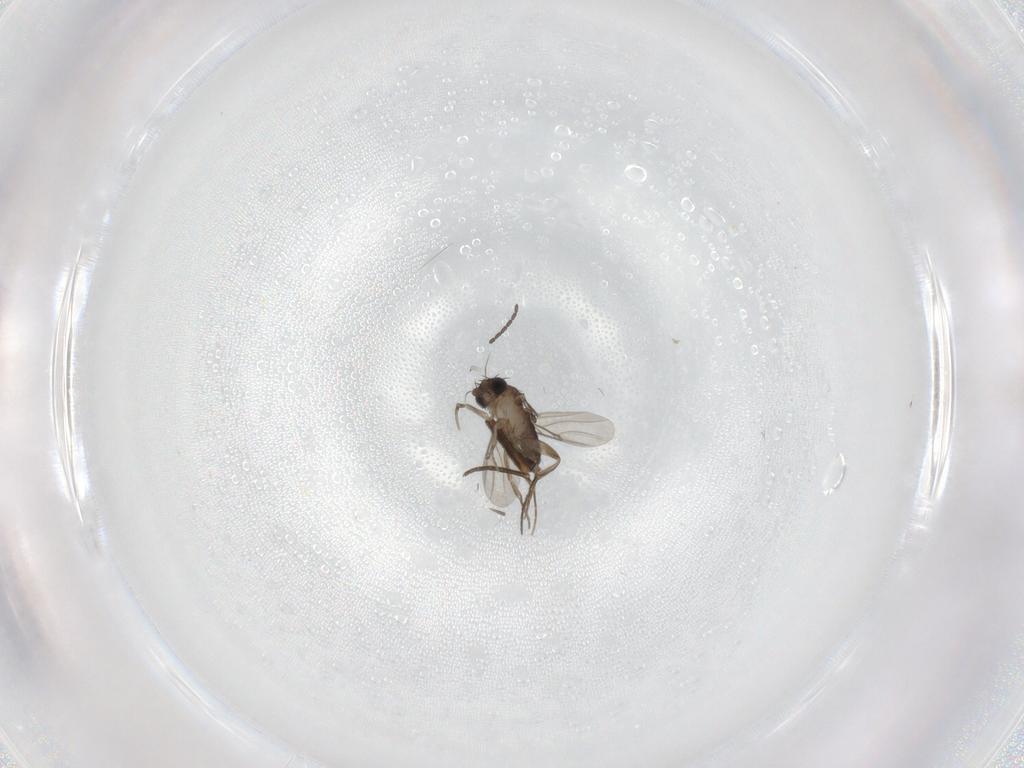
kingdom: Animalia
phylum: Arthropoda
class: Insecta
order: Diptera
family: Phoridae
